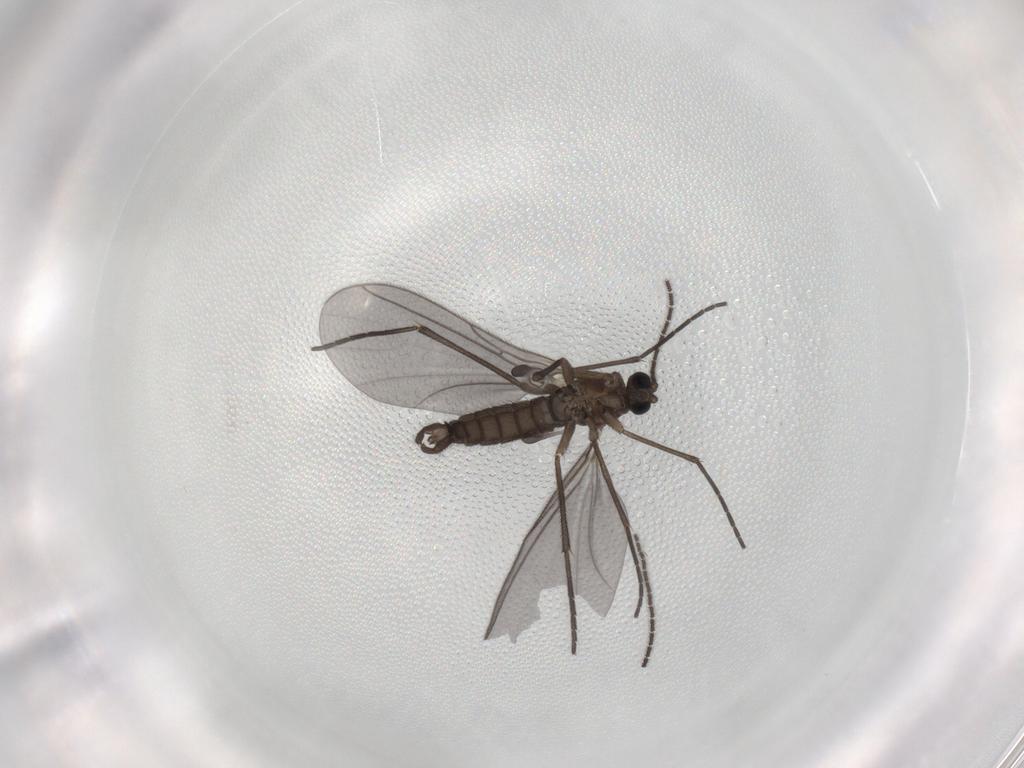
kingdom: Animalia
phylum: Arthropoda
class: Insecta
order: Diptera
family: Sciaridae
